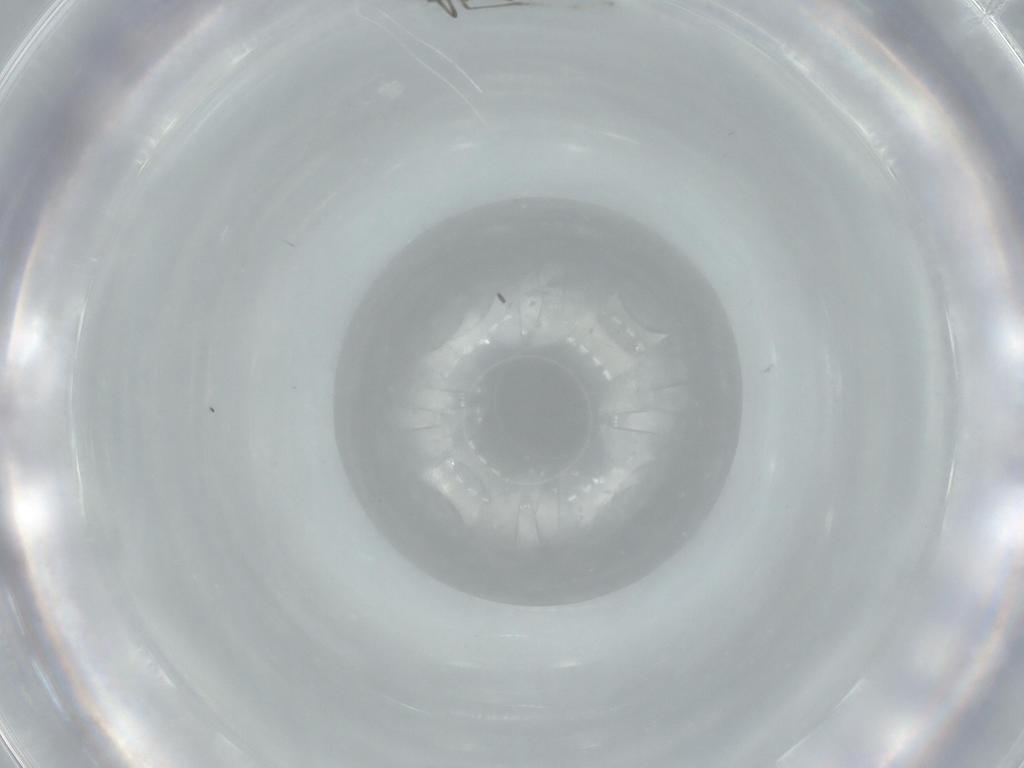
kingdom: Animalia
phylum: Arthropoda
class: Insecta
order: Diptera
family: Cecidomyiidae
